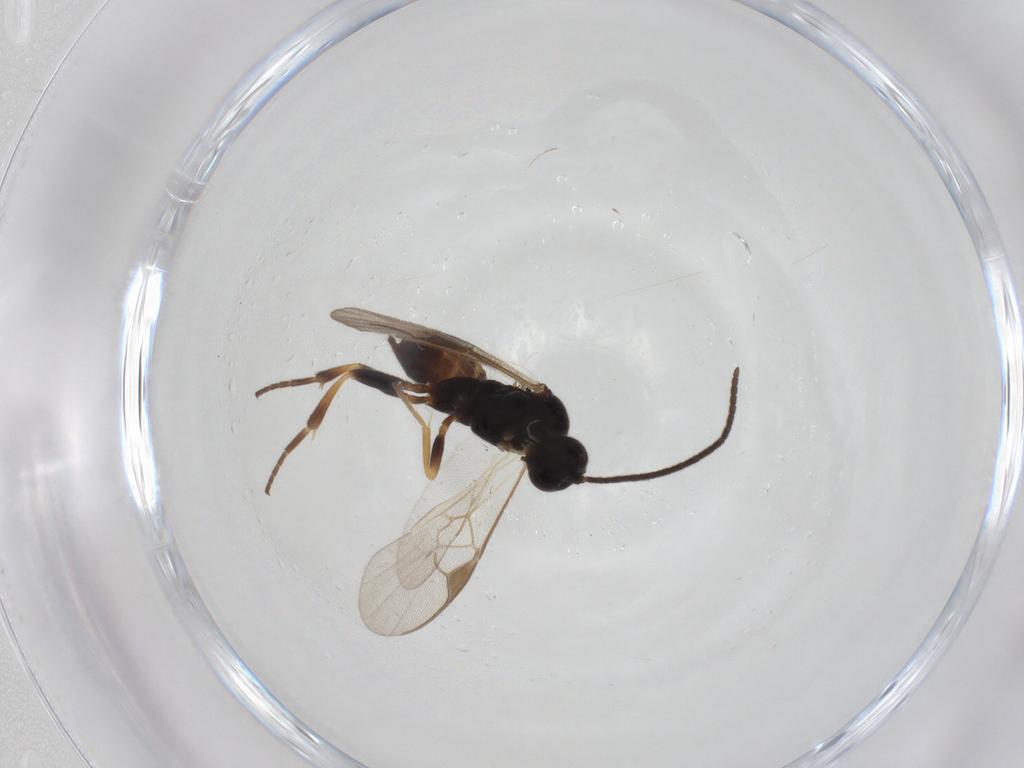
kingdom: Animalia
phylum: Arthropoda
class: Insecta
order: Hymenoptera
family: Braconidae
